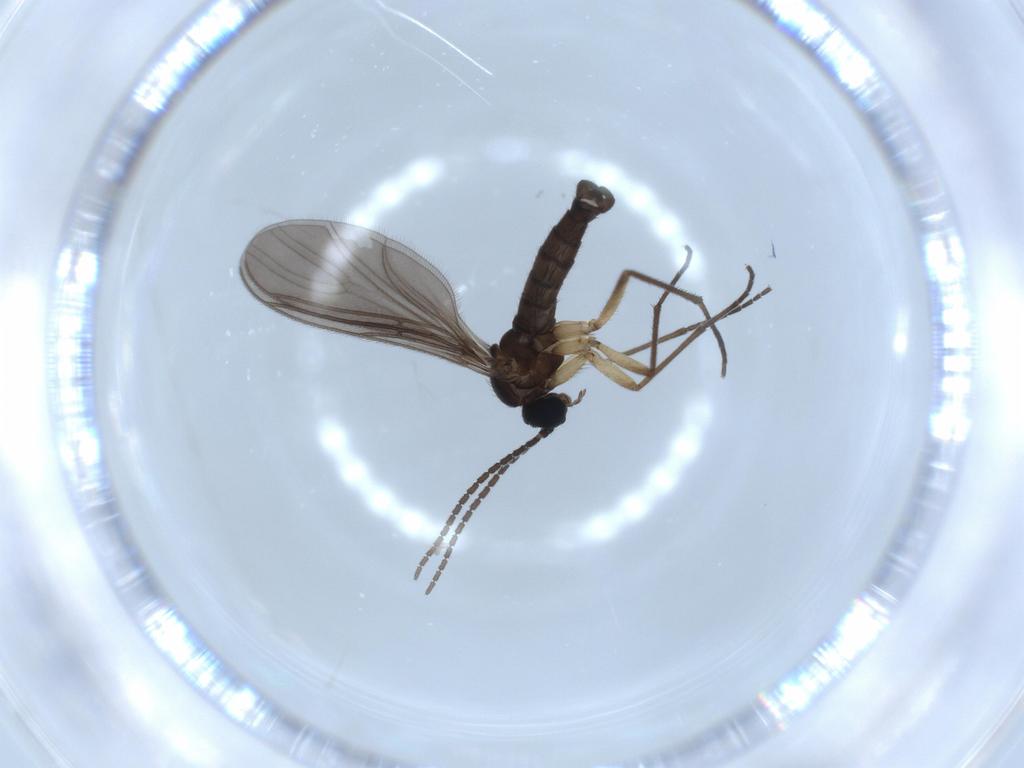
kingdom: Animalia
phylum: Arthropoda
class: Insecta
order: Diptera
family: Sciaridae
